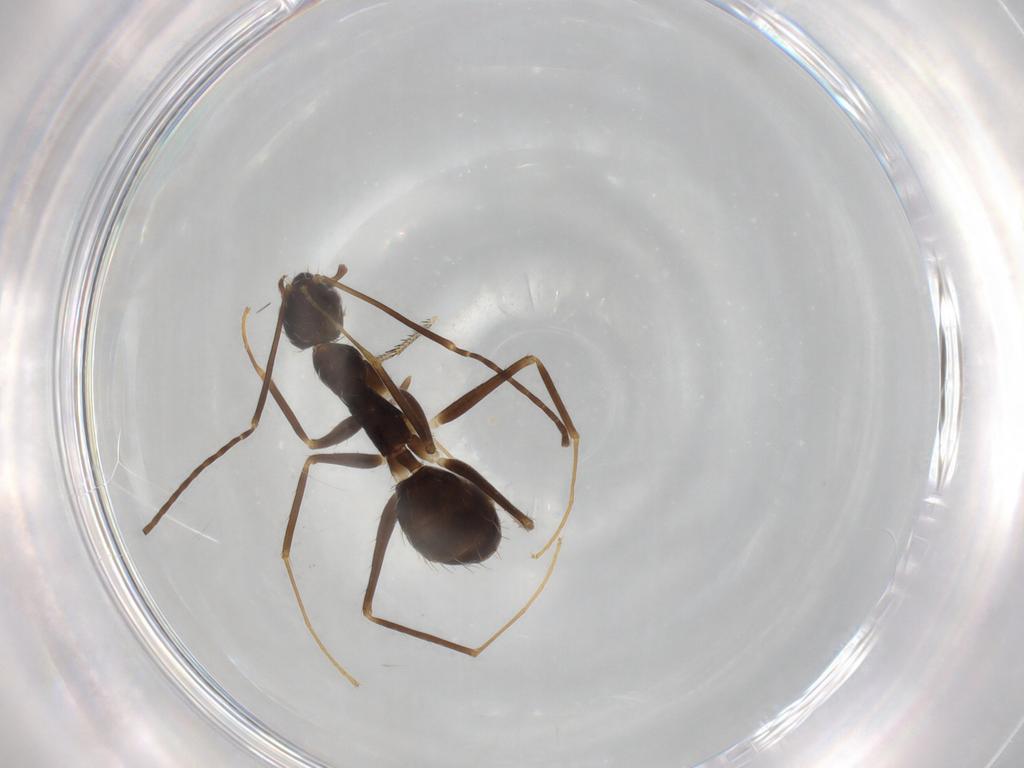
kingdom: Animalia
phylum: Arthropoda
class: Insecta
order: Hymenoptera
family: Formicidae
